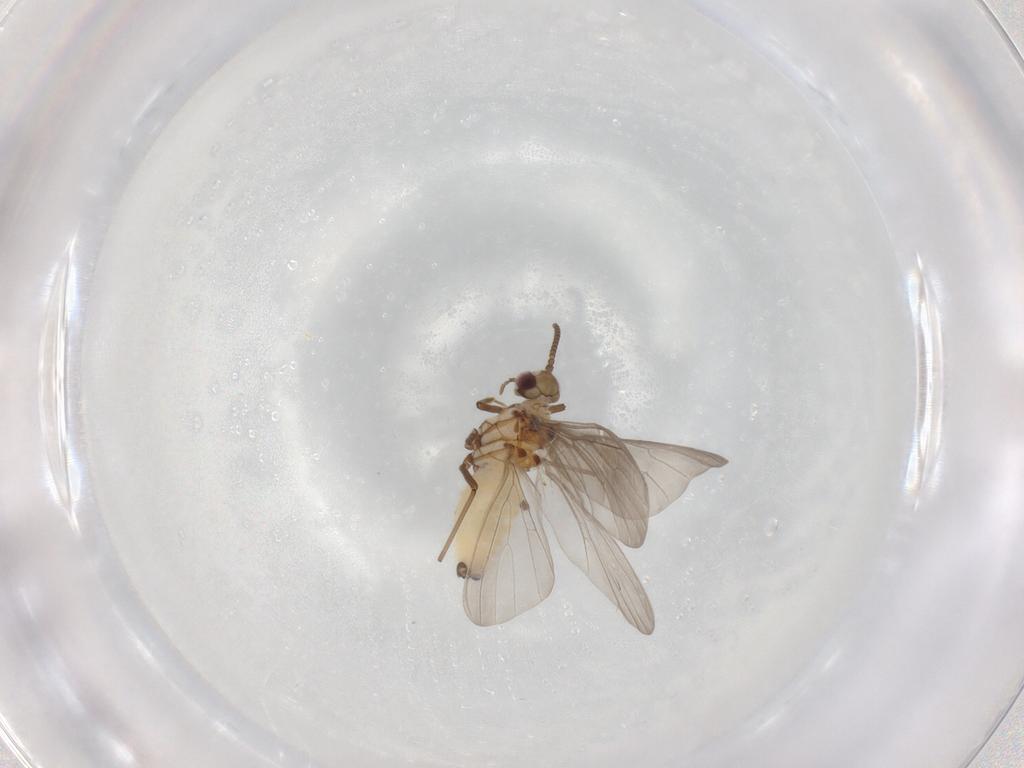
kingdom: Animalia
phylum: Arthropoda
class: Insecta
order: Neuroptera
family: Coniopterygidae
